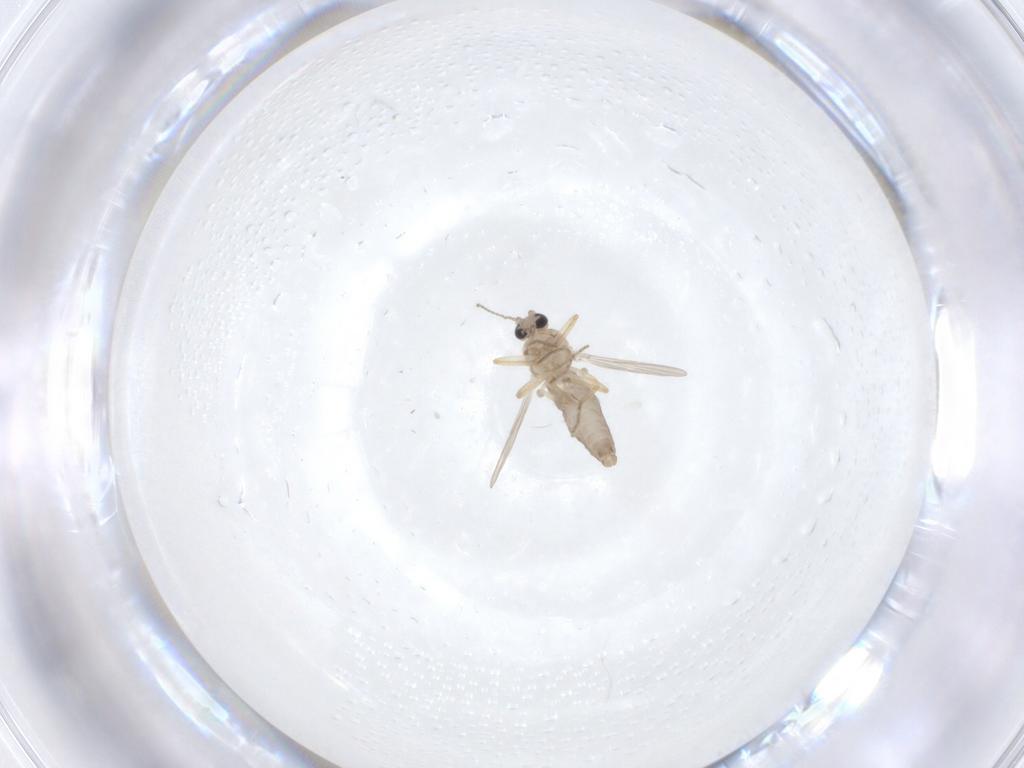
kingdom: Animalia
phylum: Arthropoda
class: Insecta
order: Diptera
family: Ceratopogonidae
